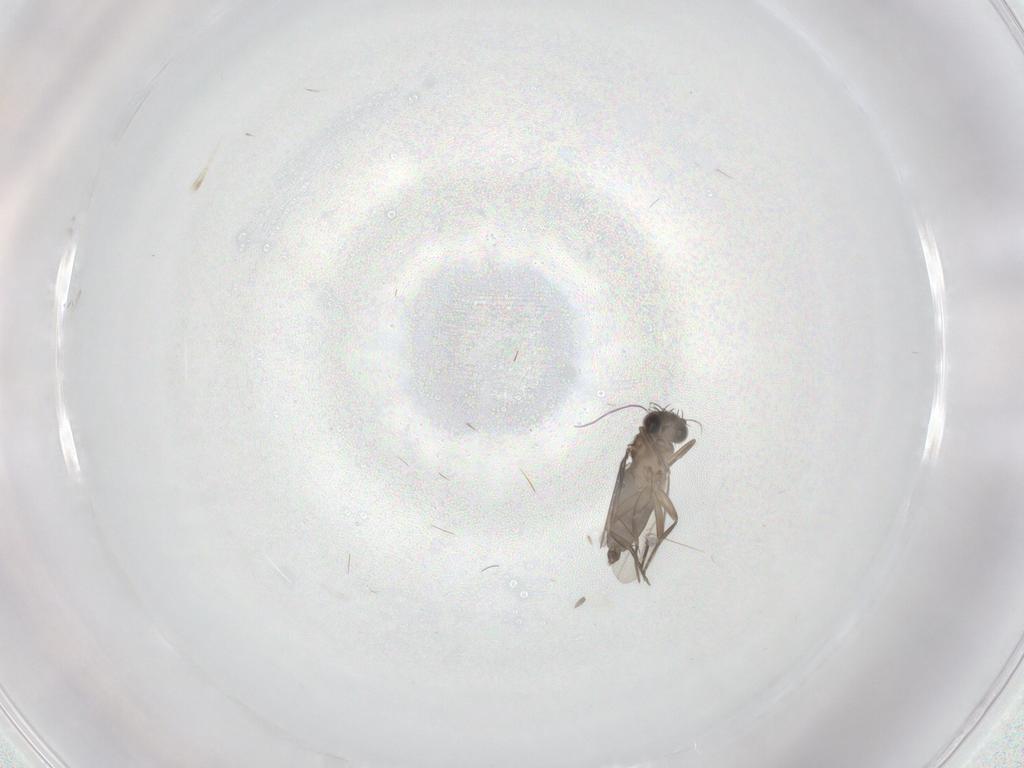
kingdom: Animalia
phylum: Arthropoda
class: Insecta
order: Diptera
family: Phoridae
